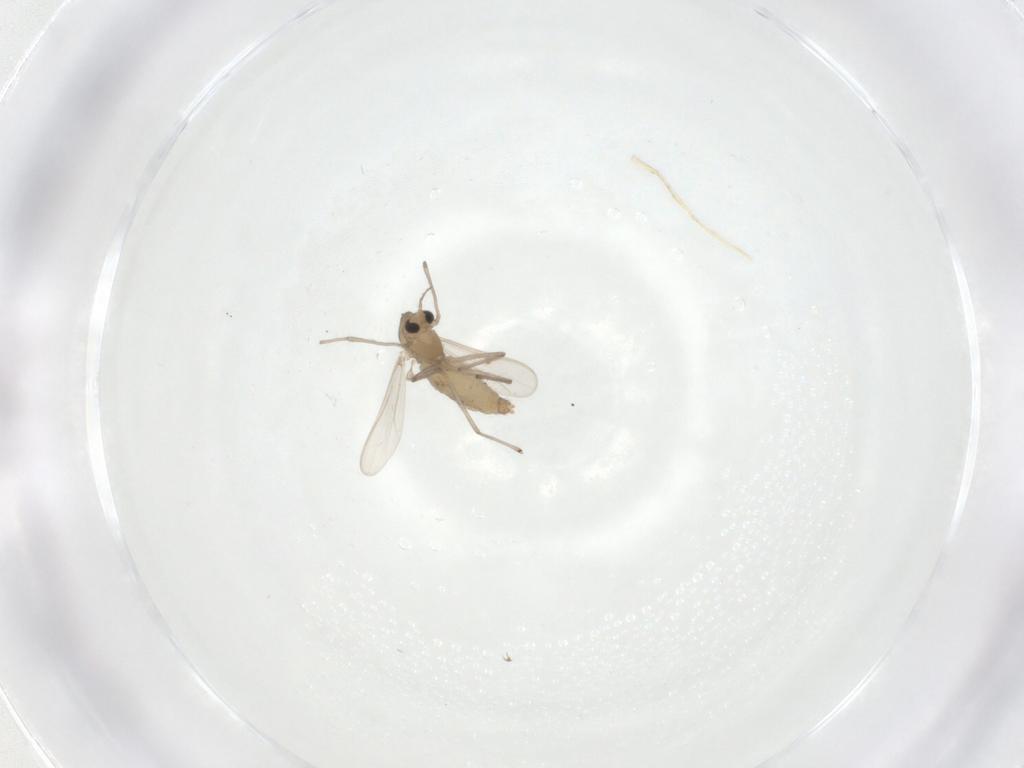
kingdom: Animalia
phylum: Arthropoda
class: Insecta
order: Diptera
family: Chironomidae
